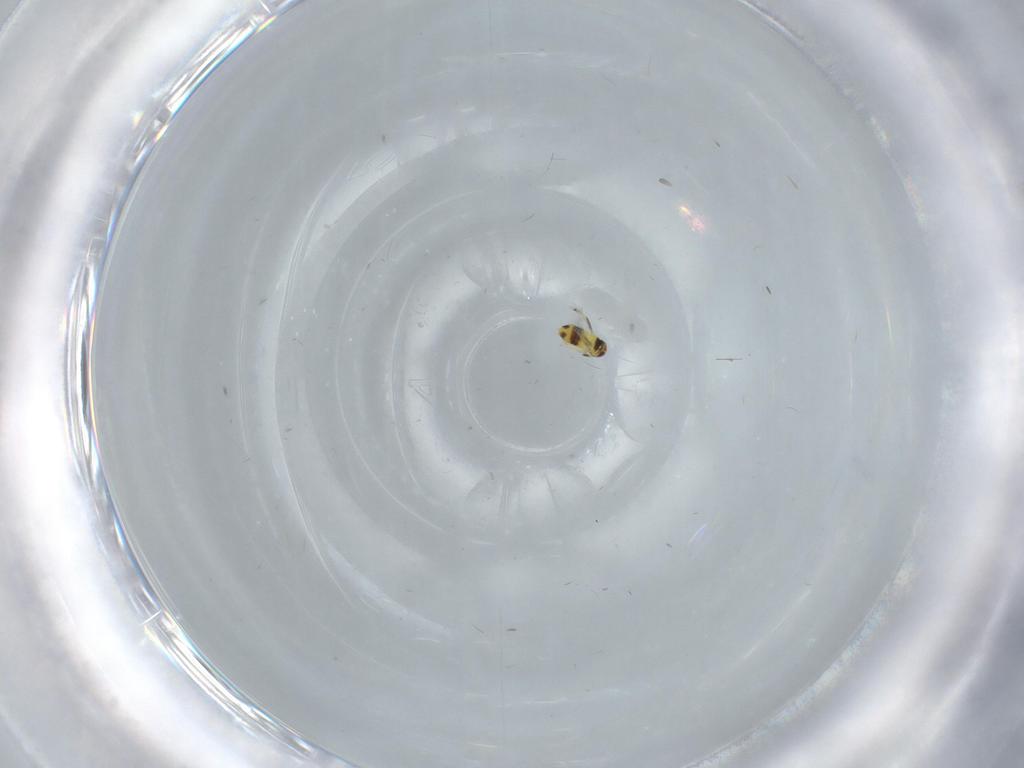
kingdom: Animalia
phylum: Arthropoda
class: Insecta
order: Hymenoptera
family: Signiphoridae
